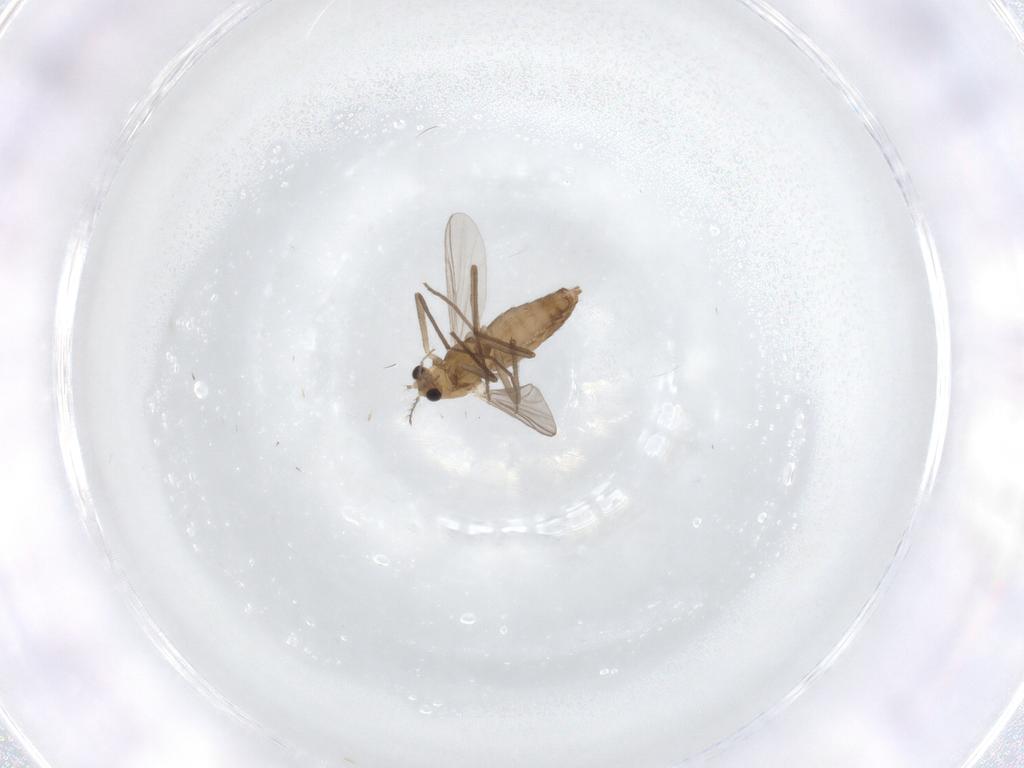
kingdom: Animalia
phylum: Arthropoda
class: Insecta
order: Diptera
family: Chironomidae
